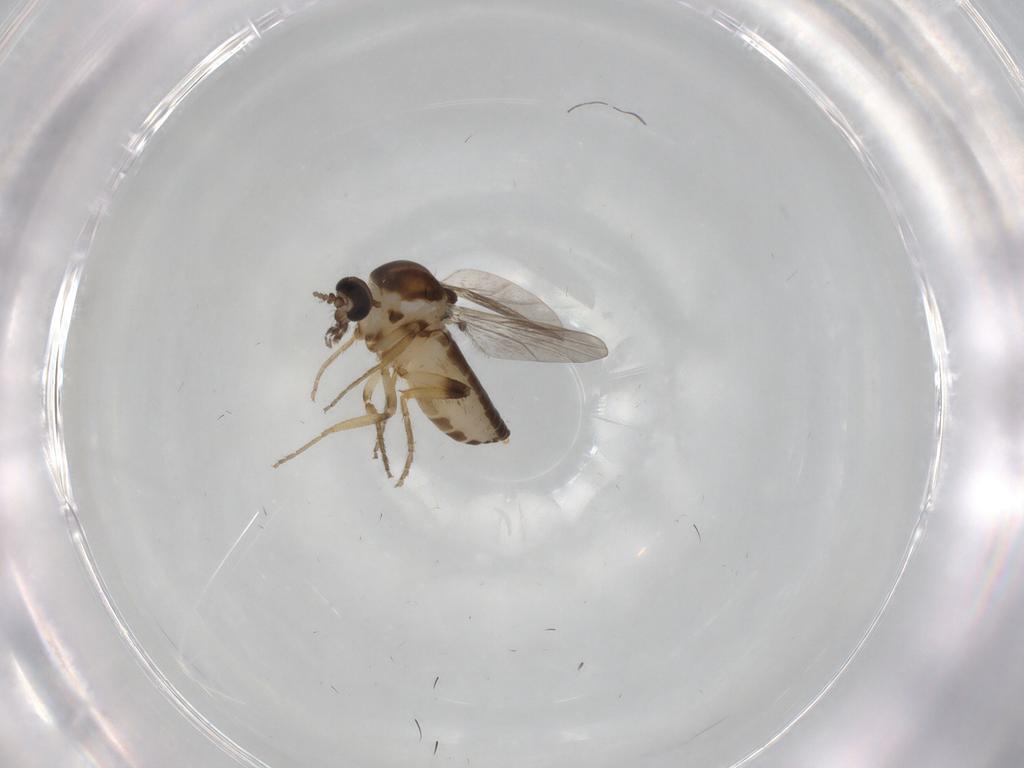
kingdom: Animalia
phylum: Arthropoda
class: Insecta
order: Diptera
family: Ceratopogonidae
